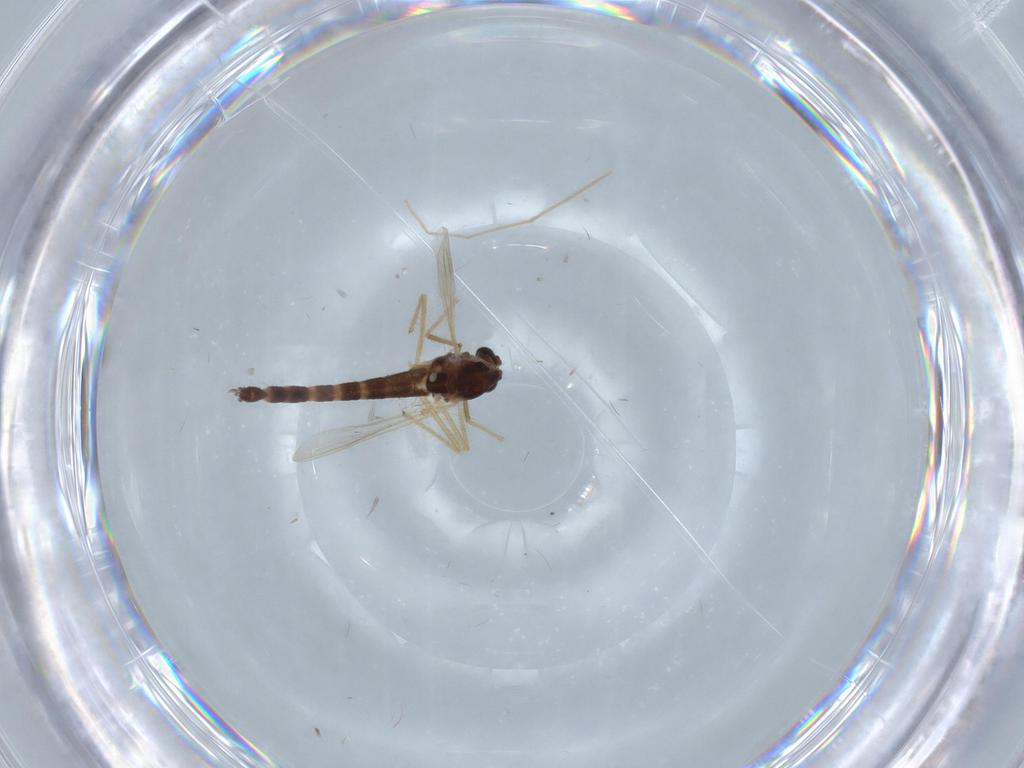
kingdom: Animalia
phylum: Arthropoda
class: Insecta
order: Diptera
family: Chironomidae
